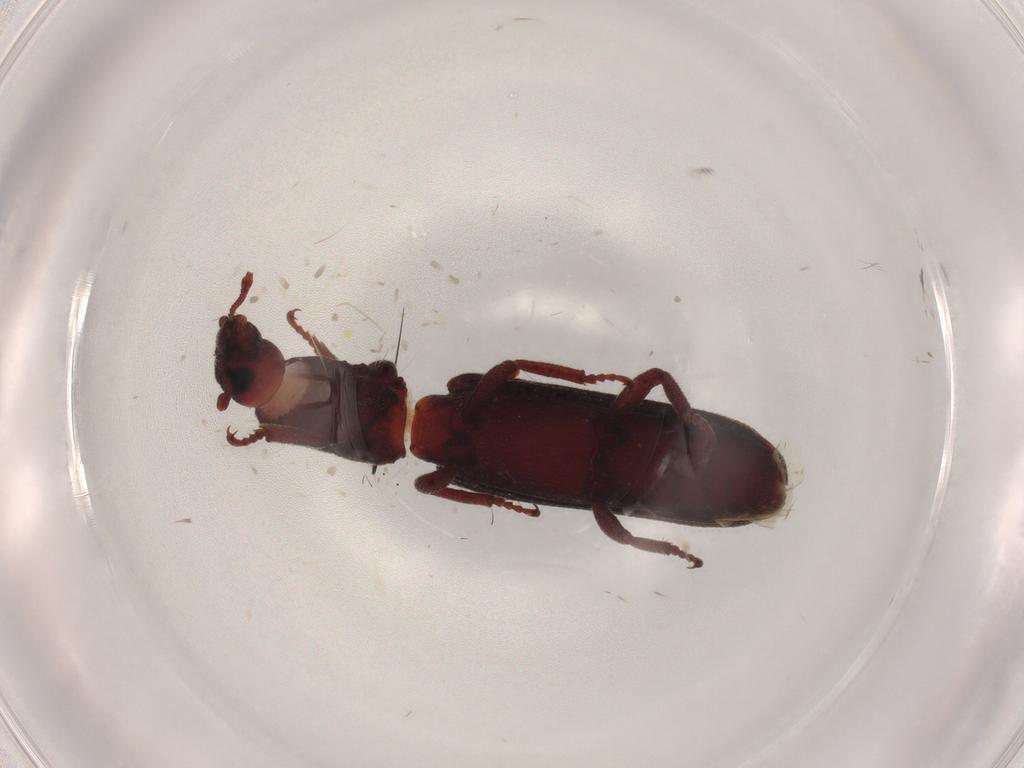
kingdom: Animalia
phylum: Arthropoda
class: Insecta
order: Coleoptera
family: Bothrideridae
